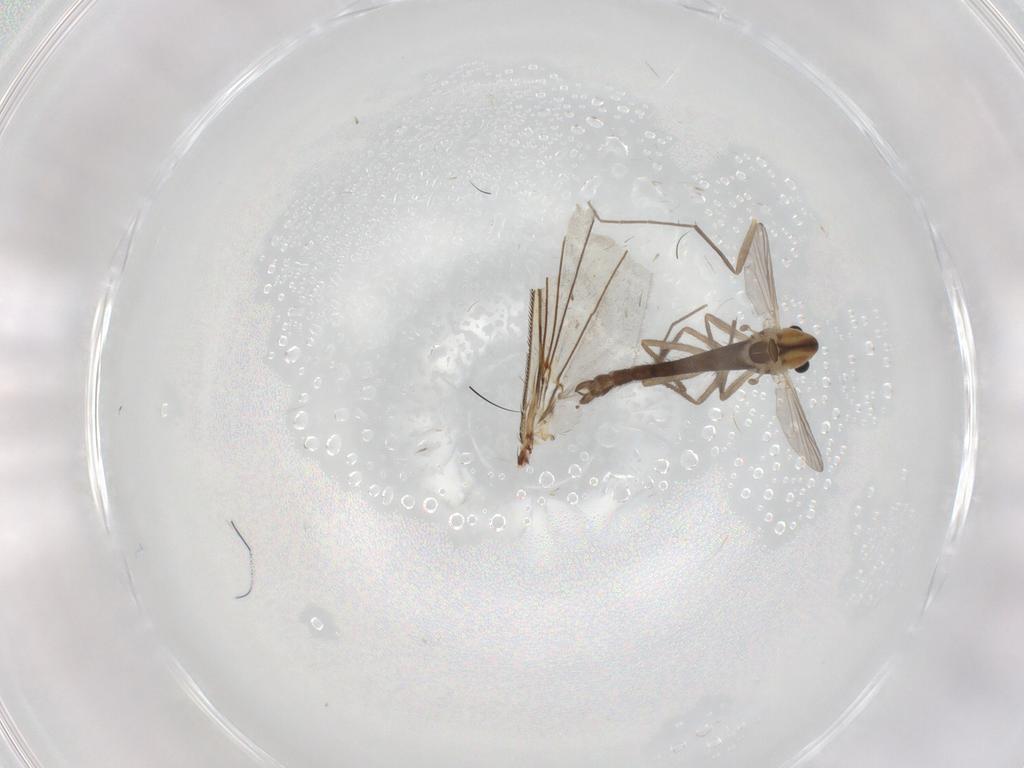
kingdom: Animalia
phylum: Arthropoda
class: Insecta
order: Diptera
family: Chironomidae
